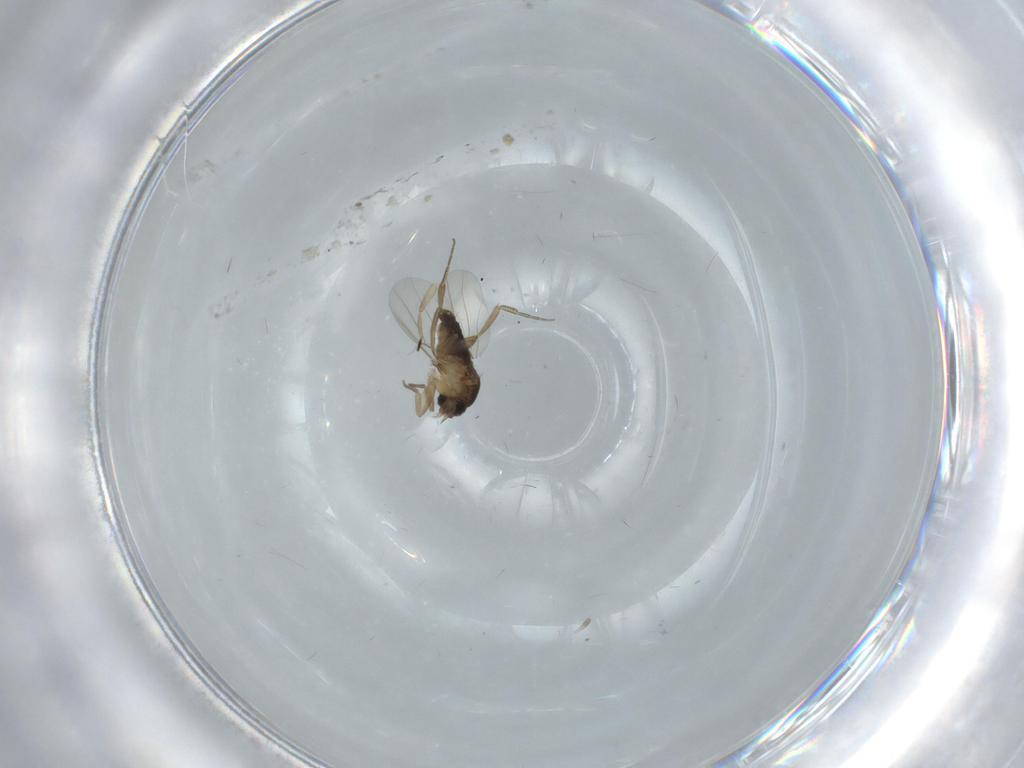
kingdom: Animalia
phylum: Arthropoda
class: Insecta
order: Diptera
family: Phoridae
